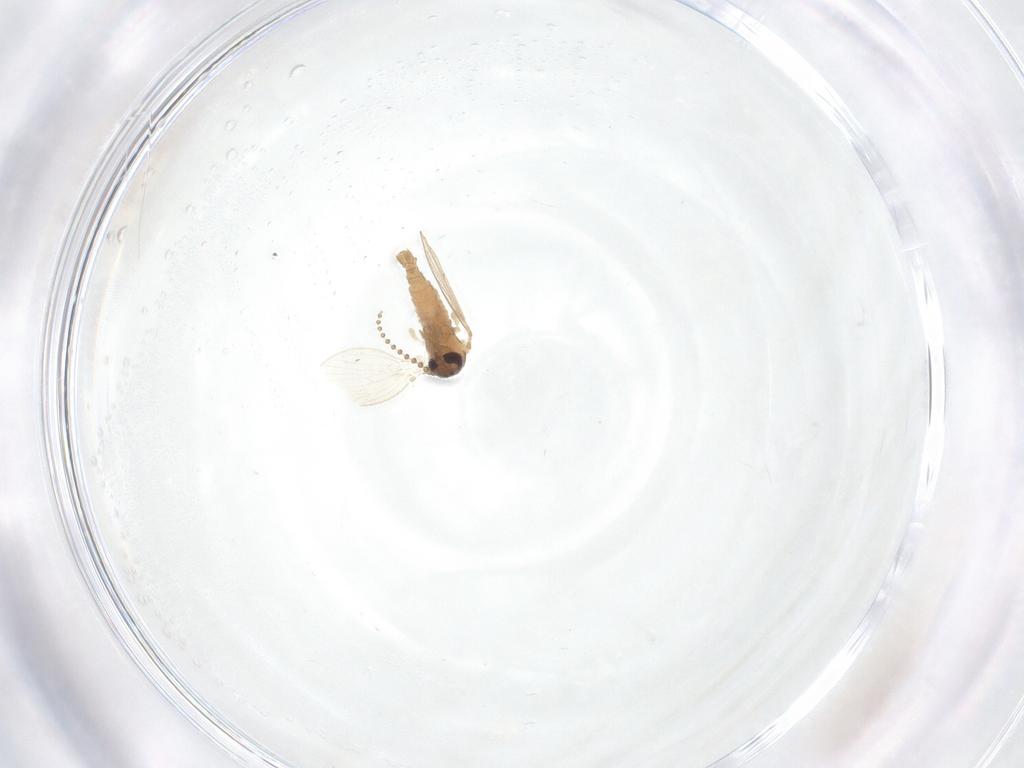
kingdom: Animalia
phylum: Arthropoda
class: Insecta
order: Diptera
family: Psychodidae
